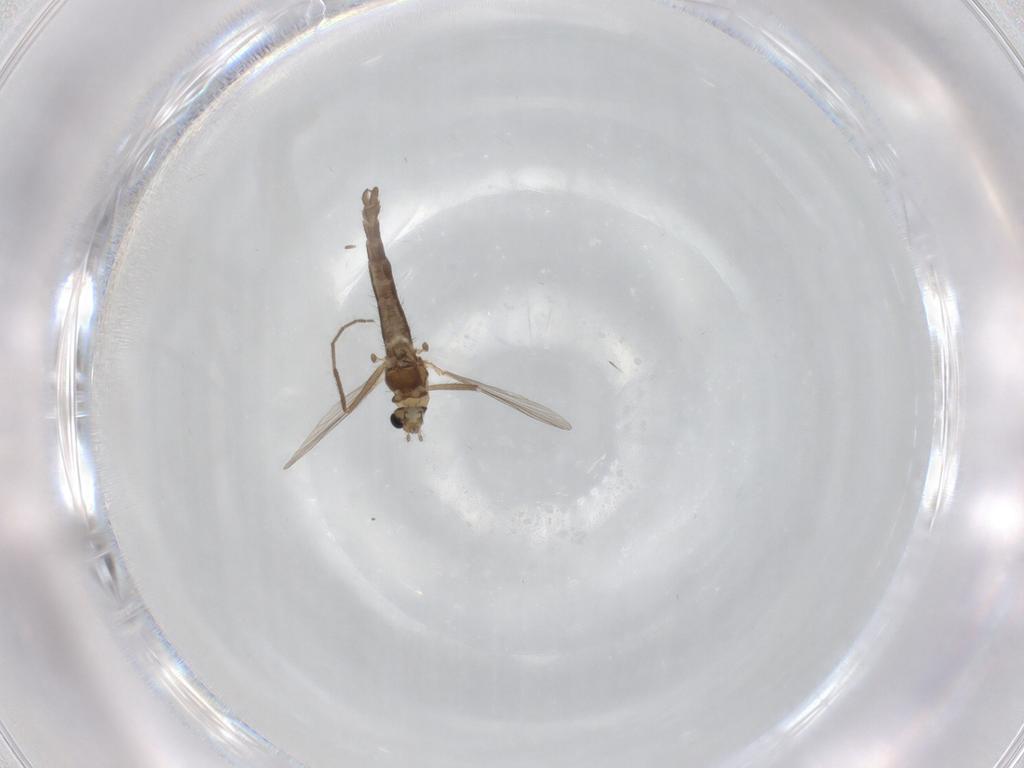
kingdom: Animalia
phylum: Arthropoda
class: Insecta
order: Diptera
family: Chironomidae
